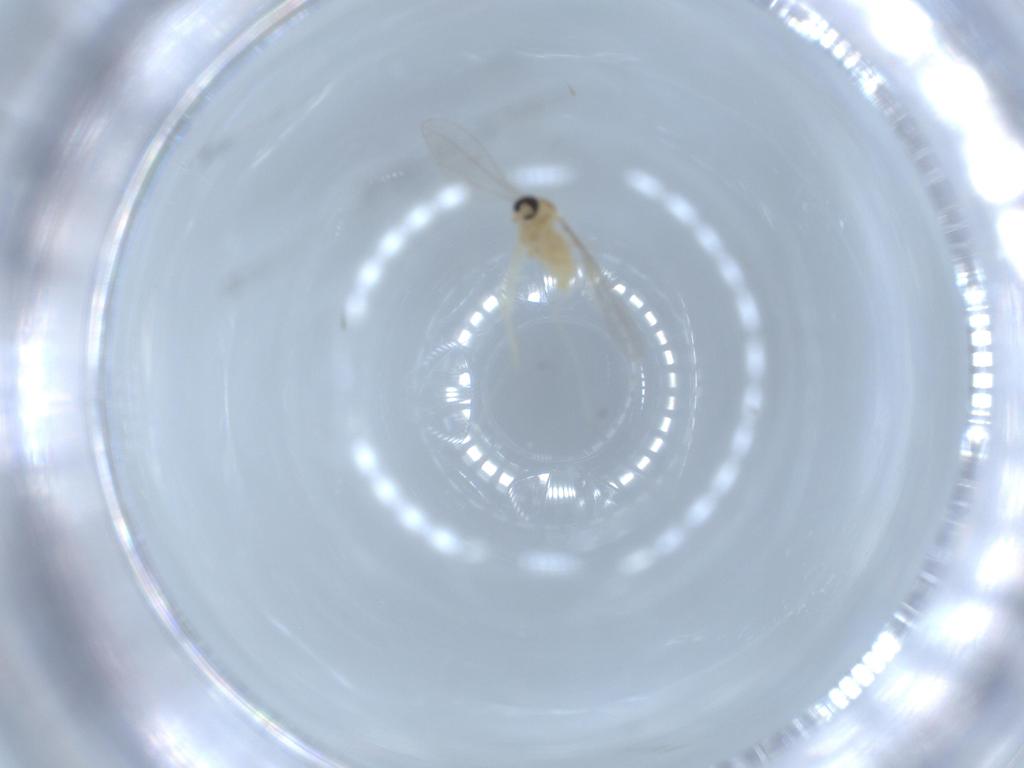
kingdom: Animalia
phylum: Arthropoda
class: Insecta
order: Diptera
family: Cecidomyiidae
